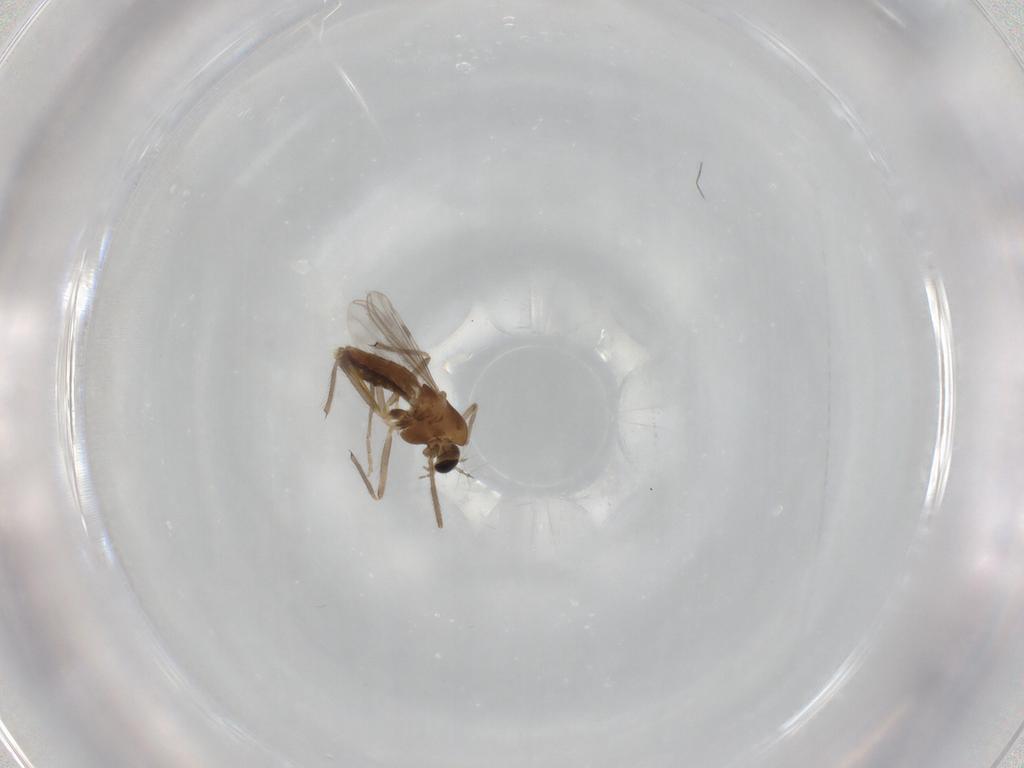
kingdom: Animalia
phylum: Arthropoda
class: Insecta
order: Diptera
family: Chironomidae
